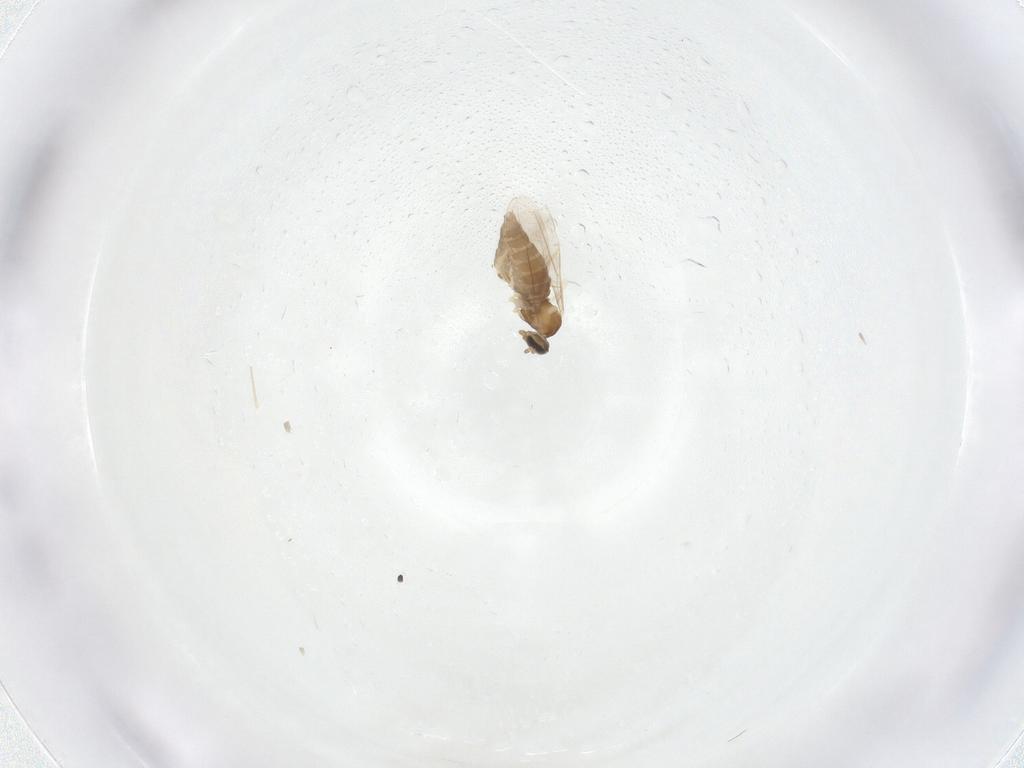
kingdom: Animalia
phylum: Arthropoda
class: Insecta
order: Diptera
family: Cecidomyiidae
